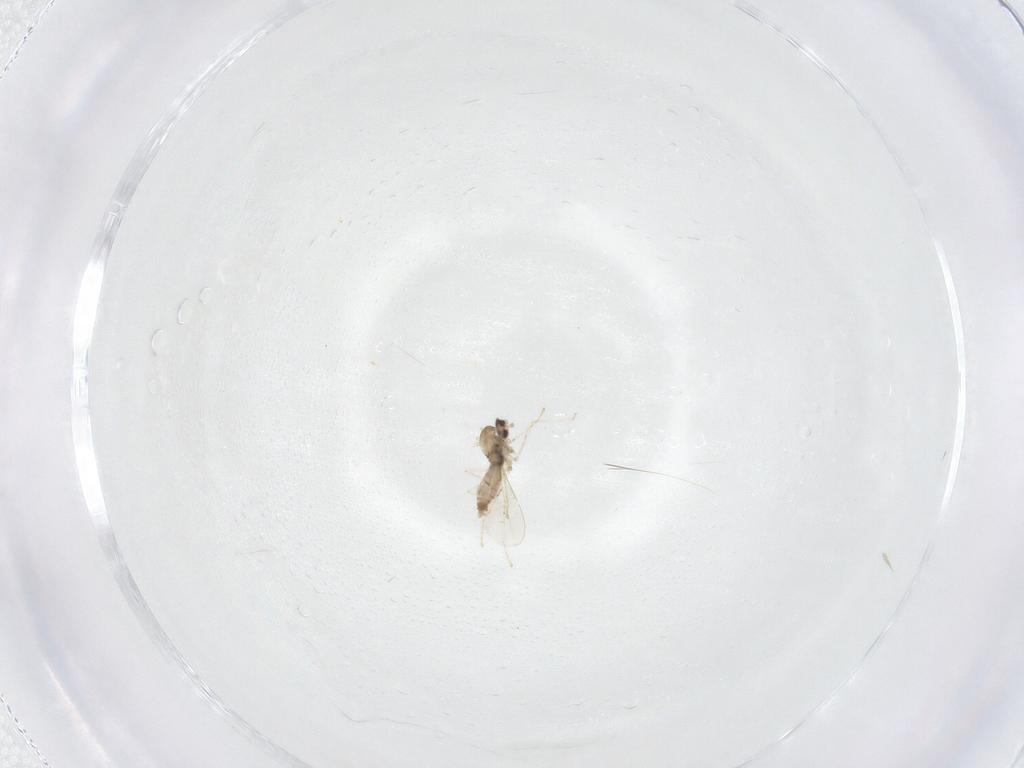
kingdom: Animalia
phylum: Arthropoda
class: Insecta
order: Diptera
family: Cecidomyiidae
